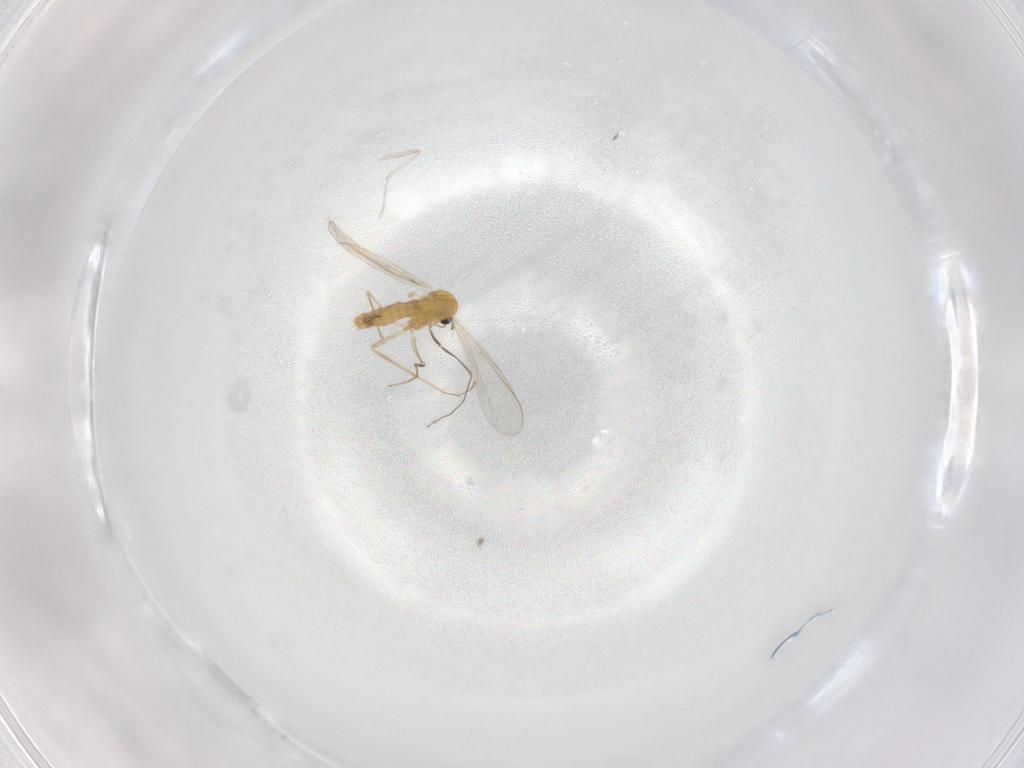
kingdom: Animalia
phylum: Arthropoda
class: Insecta
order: Diptera
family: Chironomidae
